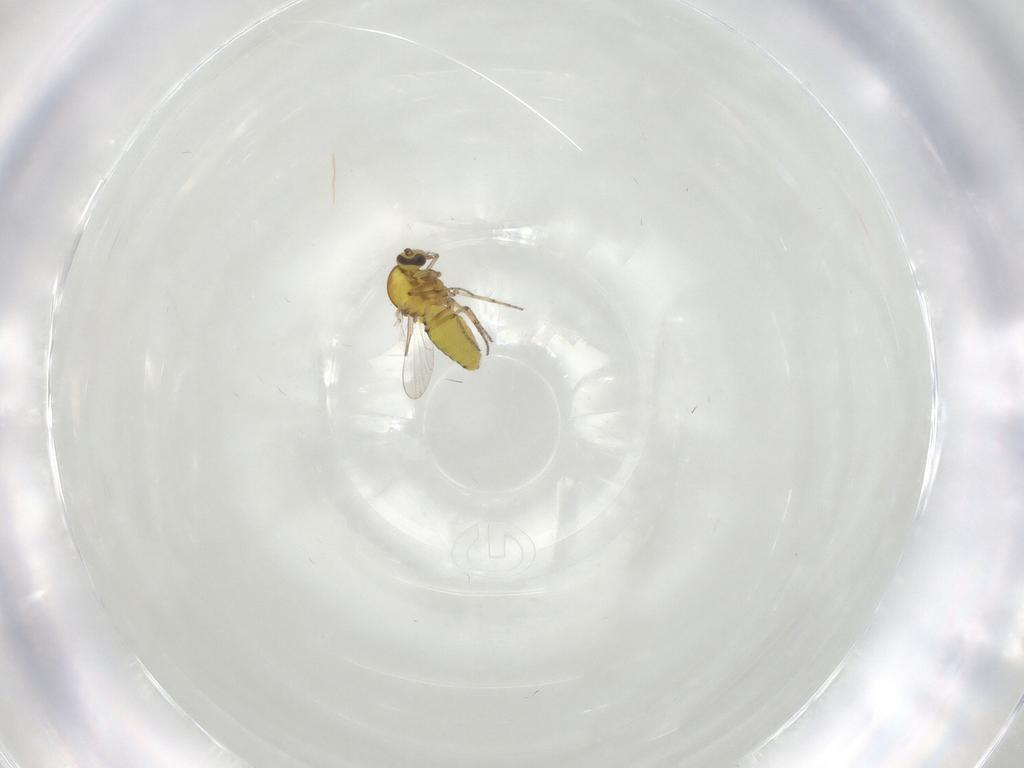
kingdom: Animalia
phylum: Arthropoda
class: Insecta
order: Diptera
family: Ceratopogonidae
